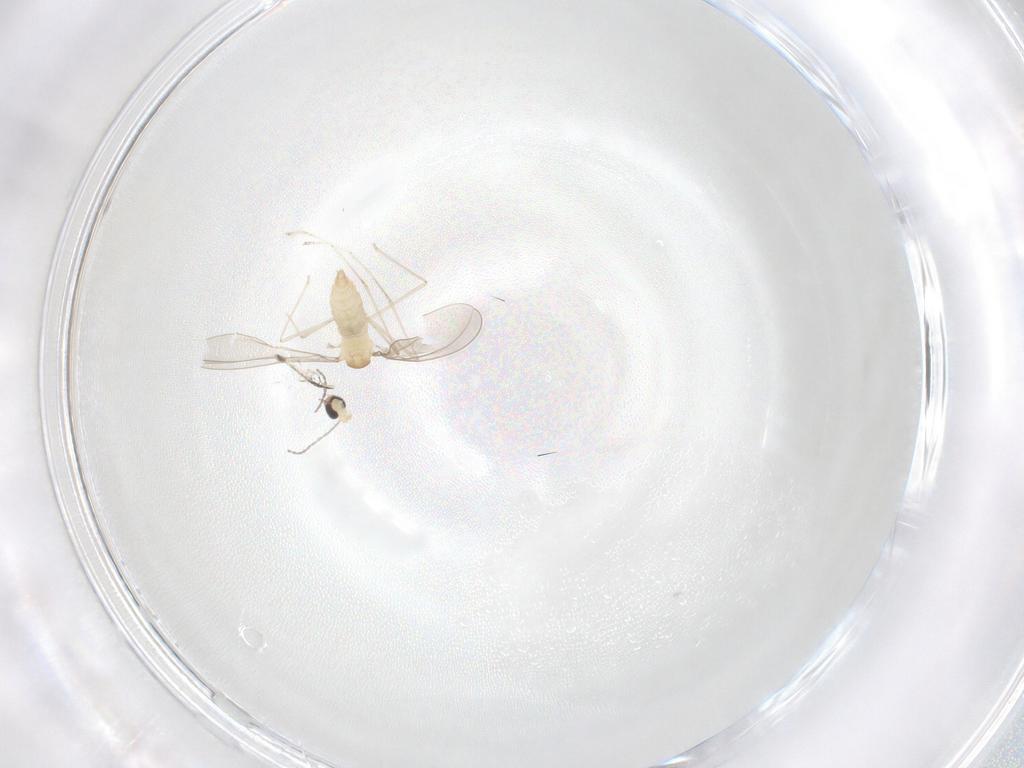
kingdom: Animalia
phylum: Arthropoda
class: Insecta
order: Diptera
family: Cecidomyiidae
